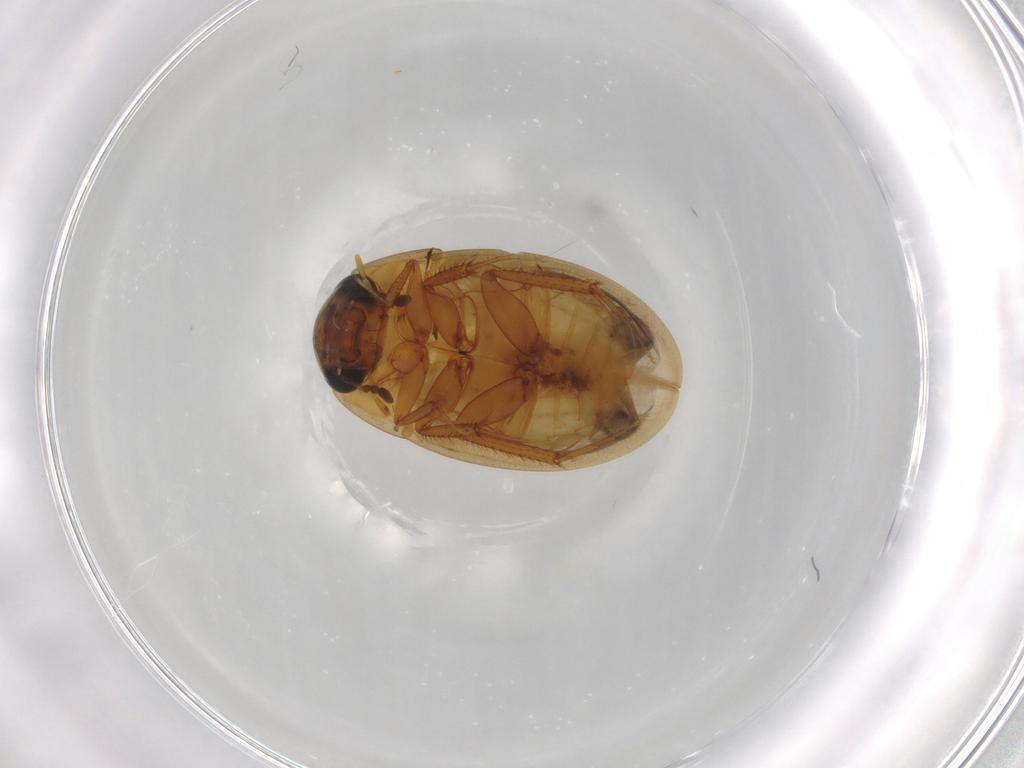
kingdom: Animalia
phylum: Arthropoda
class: Insecta
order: Coleoptera
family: Hydrophilidae
